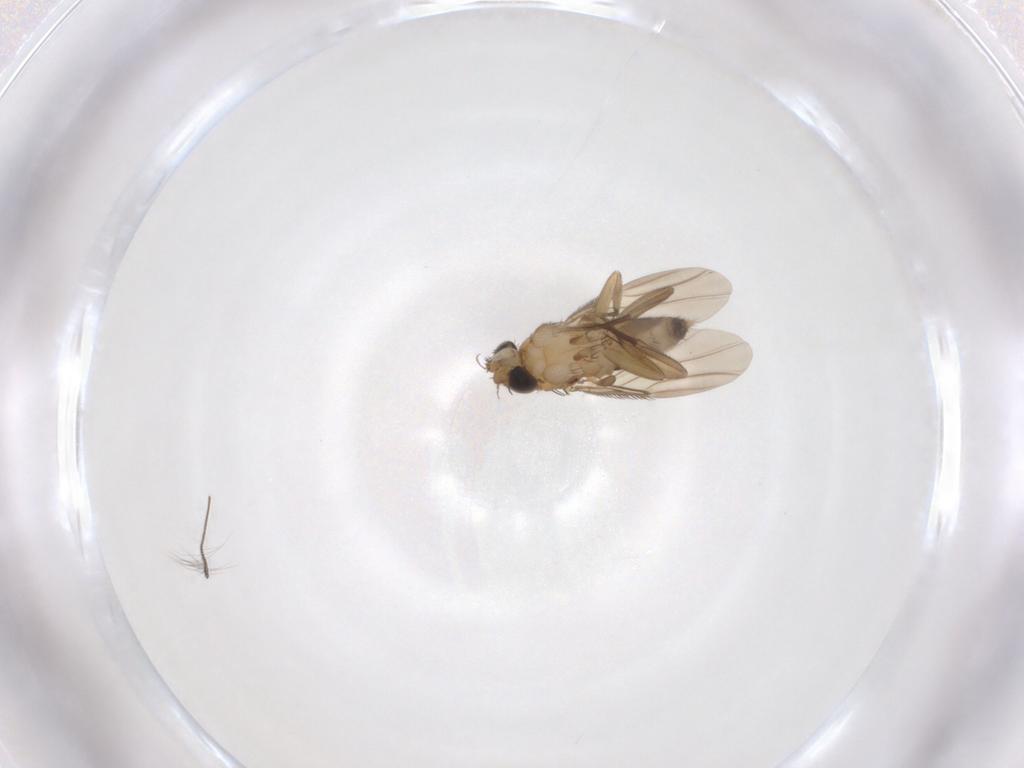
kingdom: Animalia
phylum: Arthropoda
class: Insecta
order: Diptera
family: Phoridae
